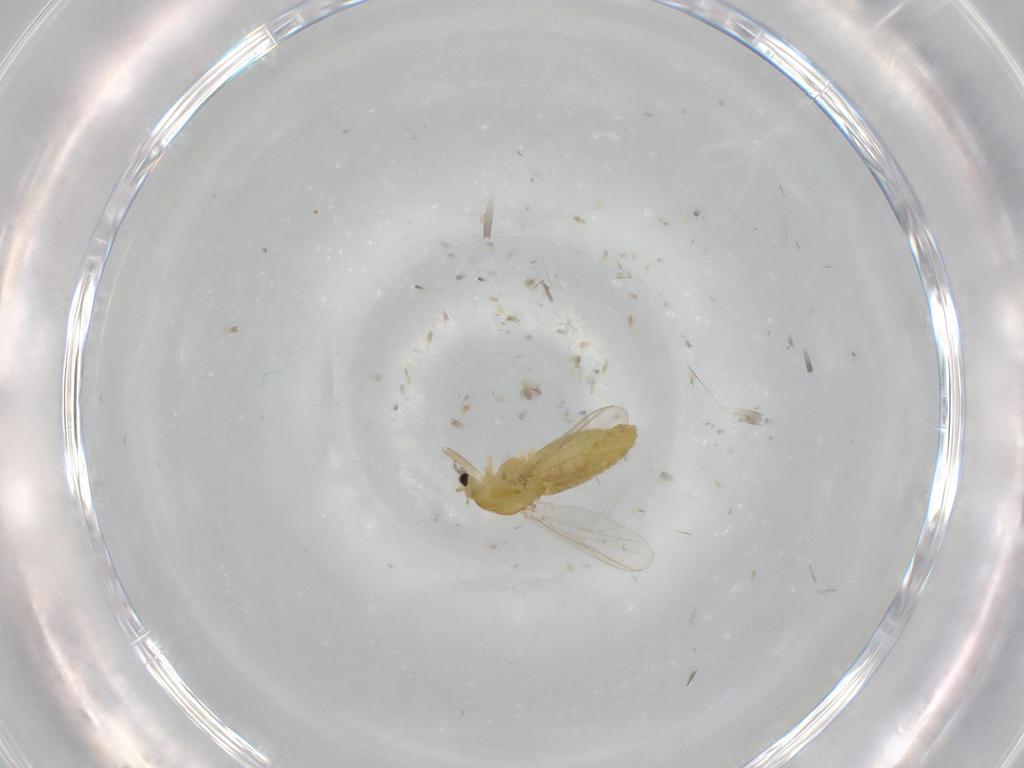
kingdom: Animalia
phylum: Arthropoda
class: Insecta
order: Diptera
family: Chironomidae
